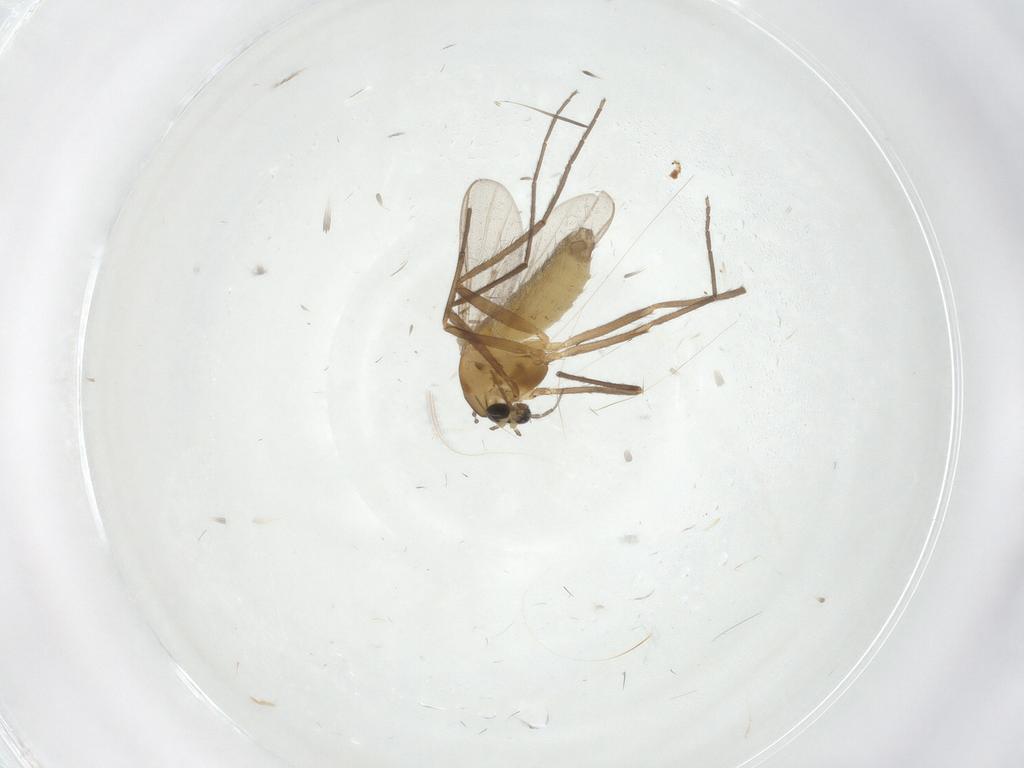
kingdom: Animalia
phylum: Arthropoda
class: Insecta
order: Diptera
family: Chironomidae
